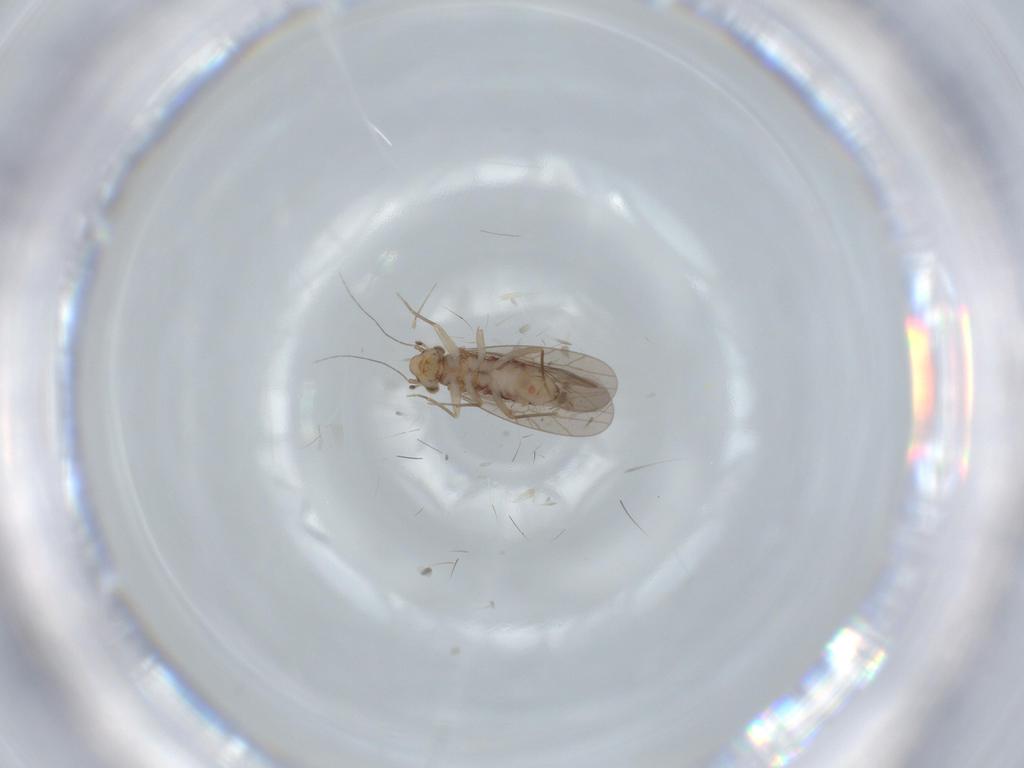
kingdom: Animalia
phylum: Arthropoda
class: Insecta
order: Psocodea
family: Lepidopsocidae
